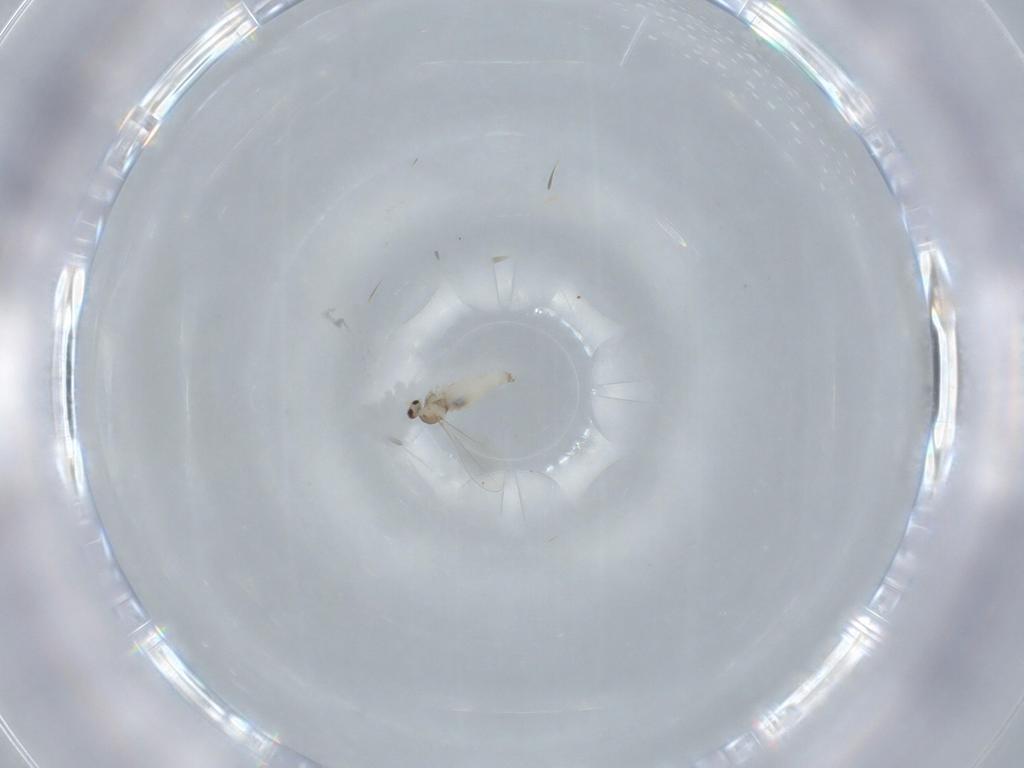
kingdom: Animalia
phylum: Arthropoda
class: Insecta
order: Diptera
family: Cecidomyiidae
